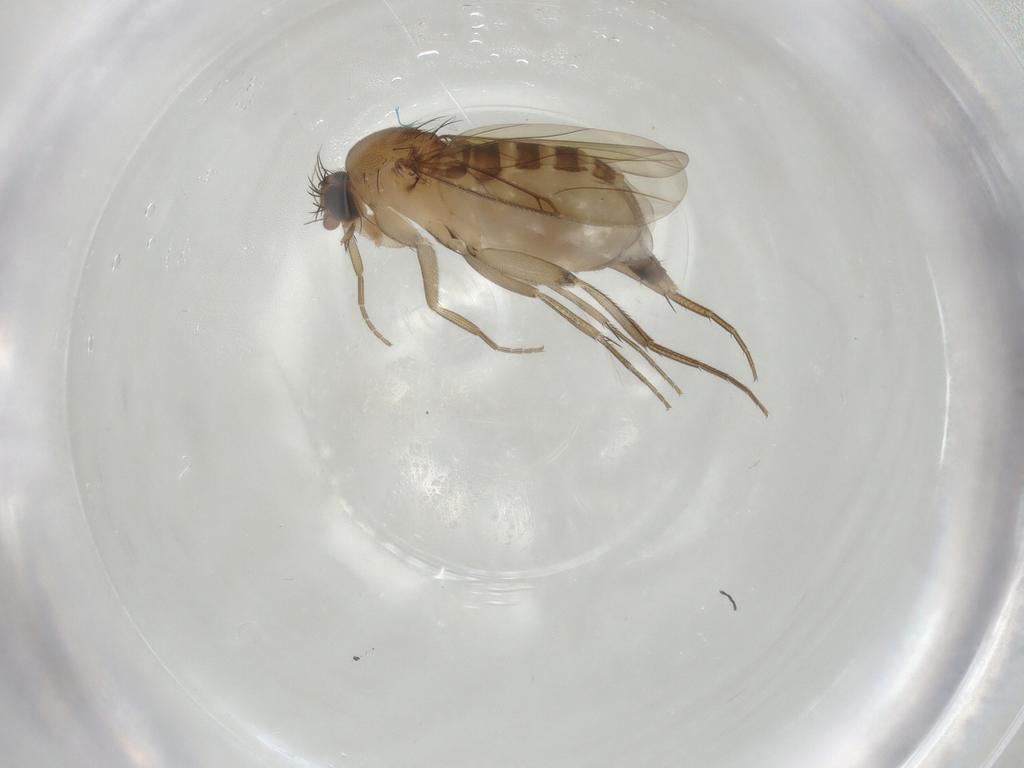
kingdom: Animalia
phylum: Arthropoda
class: Insecta
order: Diptera
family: Phoridae
